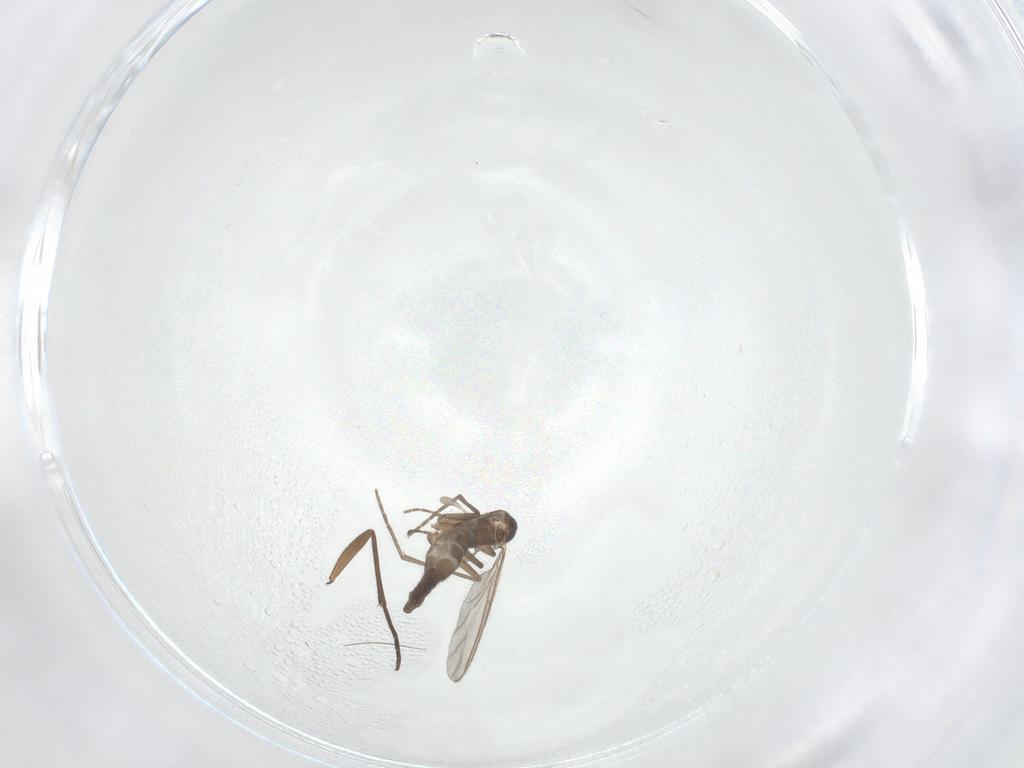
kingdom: Animalia
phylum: Arthropoda
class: Insecta
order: Diptera
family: Sciaridae
